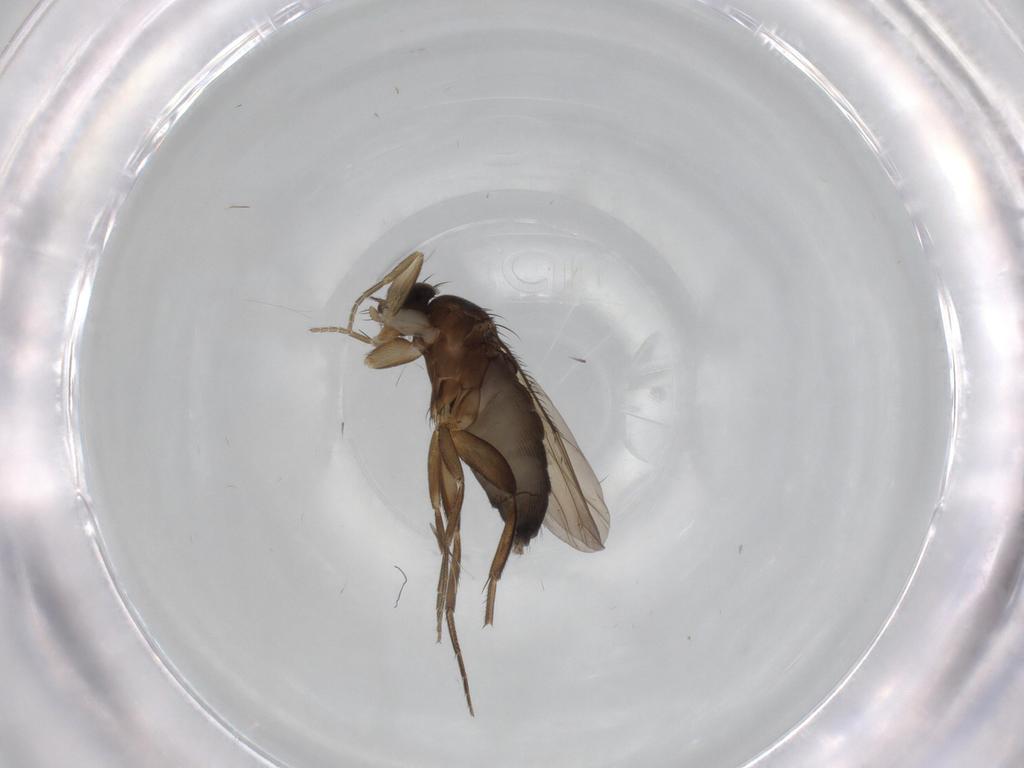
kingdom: Animalia
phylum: Arthropoda
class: Insecta
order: Diptera
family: Phoridae
